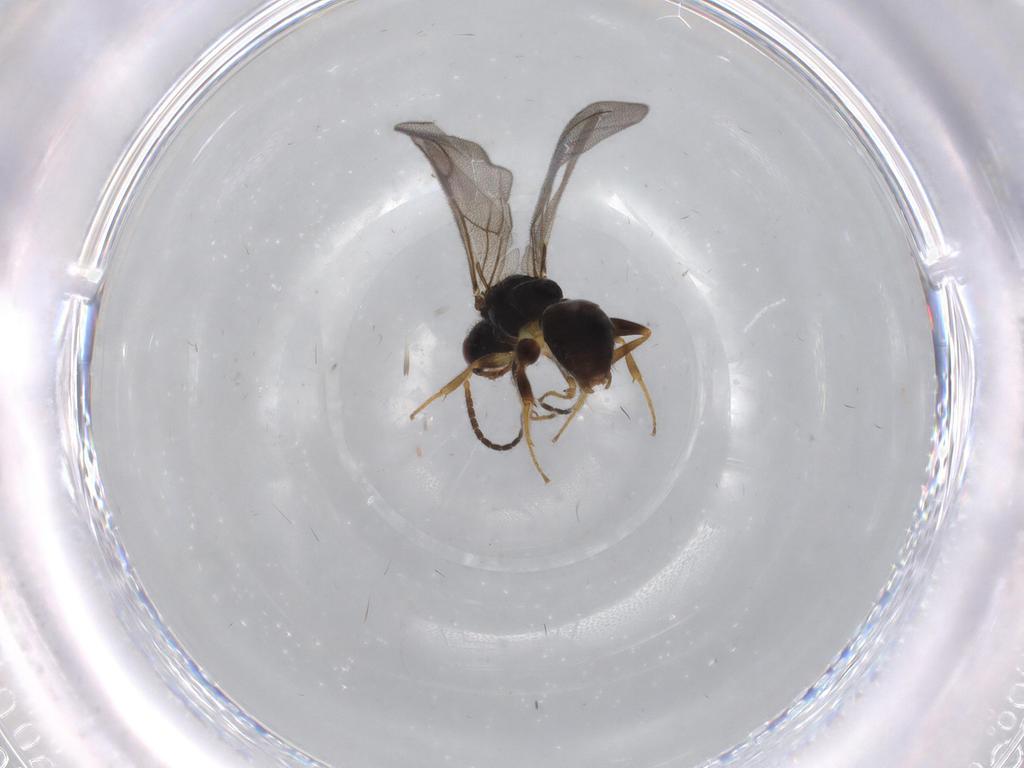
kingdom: Animalia
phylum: Arthropoda
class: Insecta
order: Hymenoptera
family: Bethylidae
